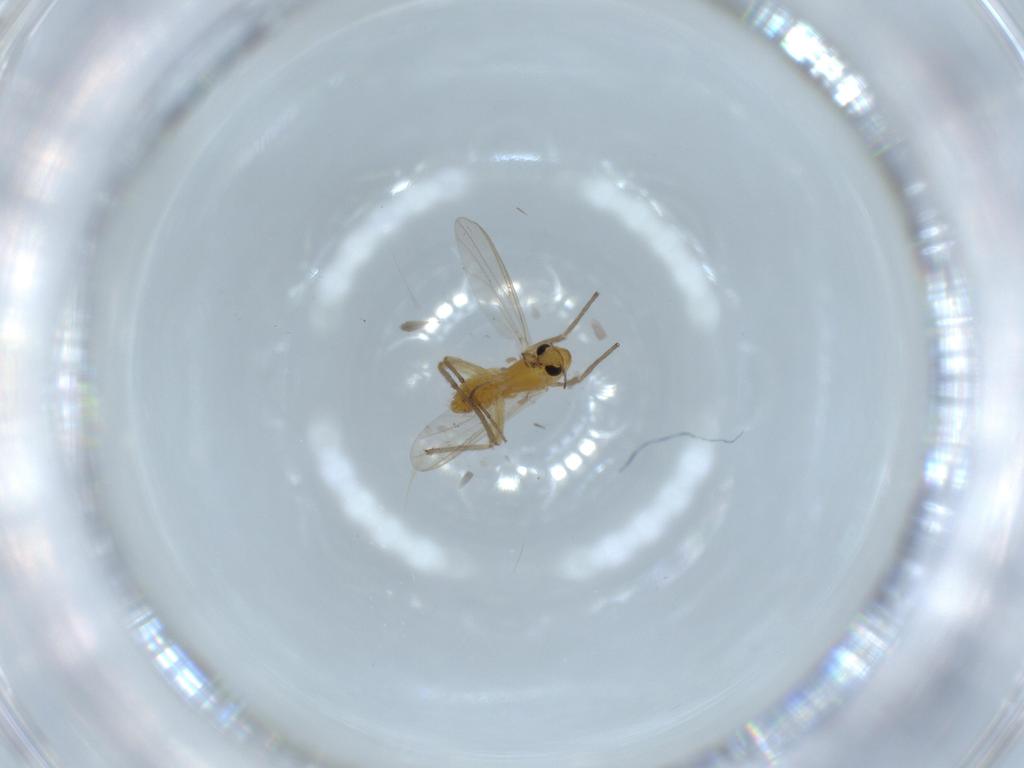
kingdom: Animalia
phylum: Arthropoda
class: Insecta
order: Diptera
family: Chironomidae
